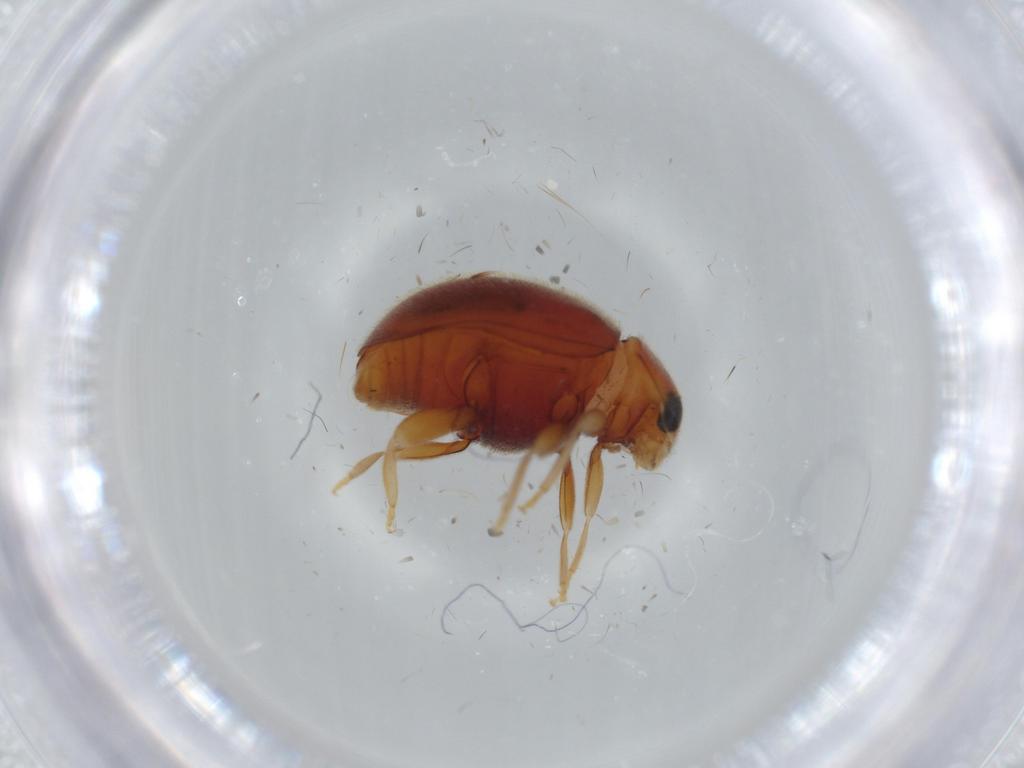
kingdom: Animalia
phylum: Arthropoda
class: Insecta
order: Coleoptera
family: Coccinellidae
